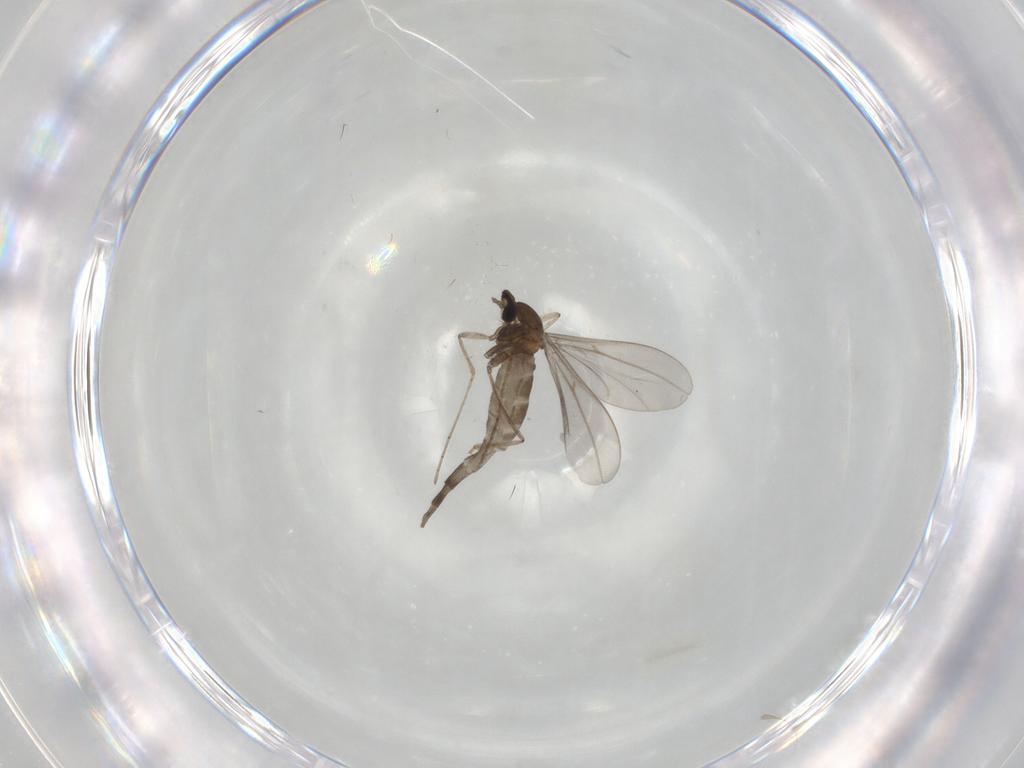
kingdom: Animalia
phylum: Arthropoda
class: Insecta
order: Diptera
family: Cecidomyiidae
